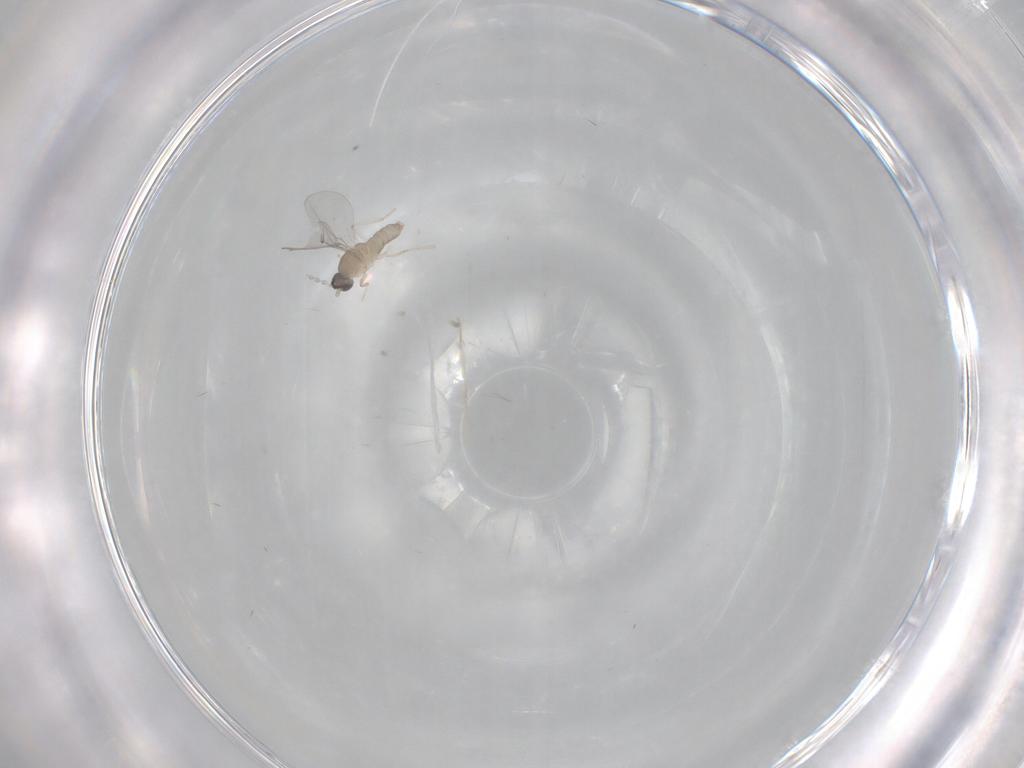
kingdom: Animalia
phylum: Arthropoda
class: Insecta
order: Diptera
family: Cecidomyiidae
